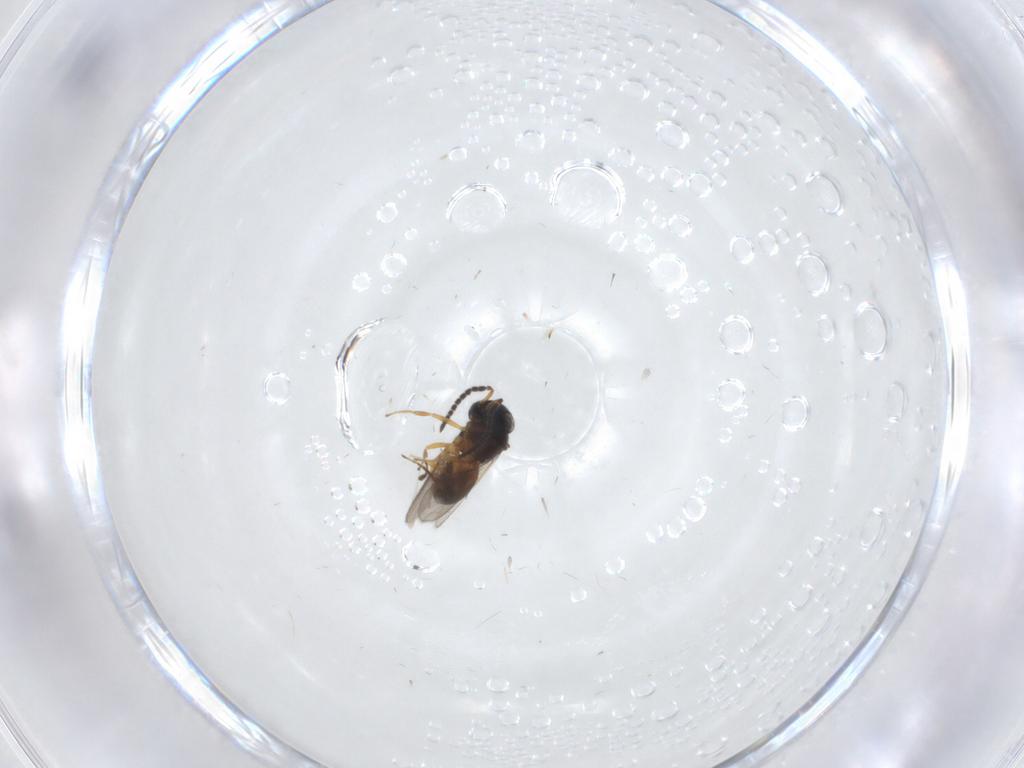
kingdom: Animalia
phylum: Arthropoda
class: Insecta
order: Hymenoptera
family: Scelionidae
